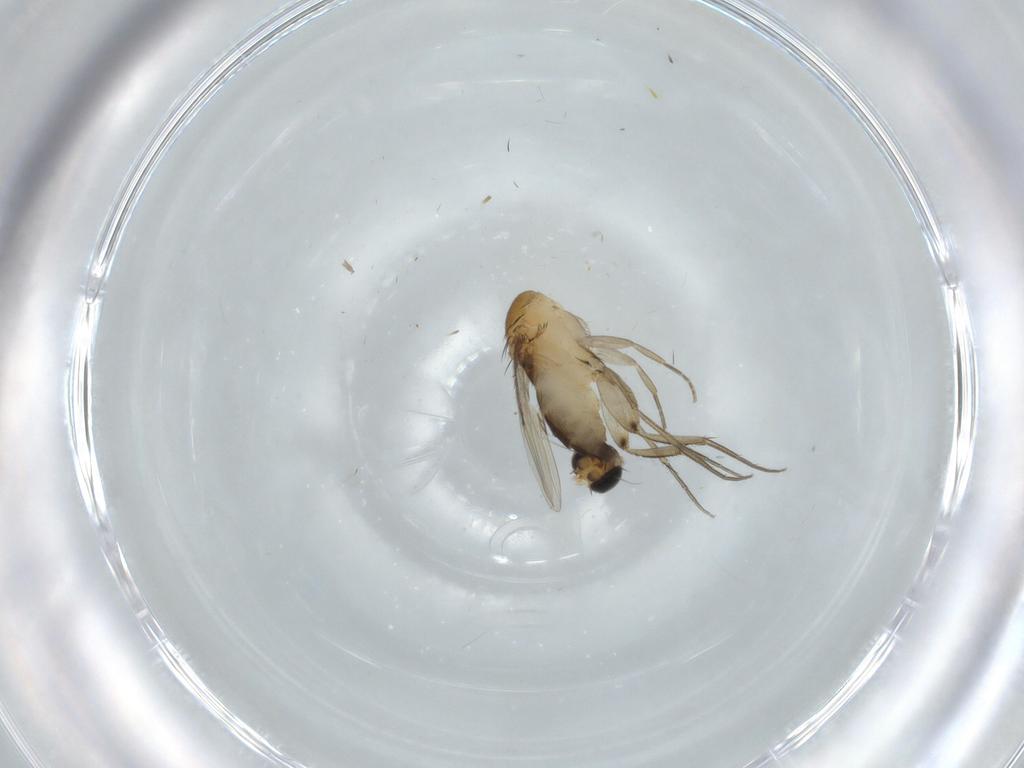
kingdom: Animalia
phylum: Arthropoda
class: Insecta
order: Diptera
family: Phoridae
